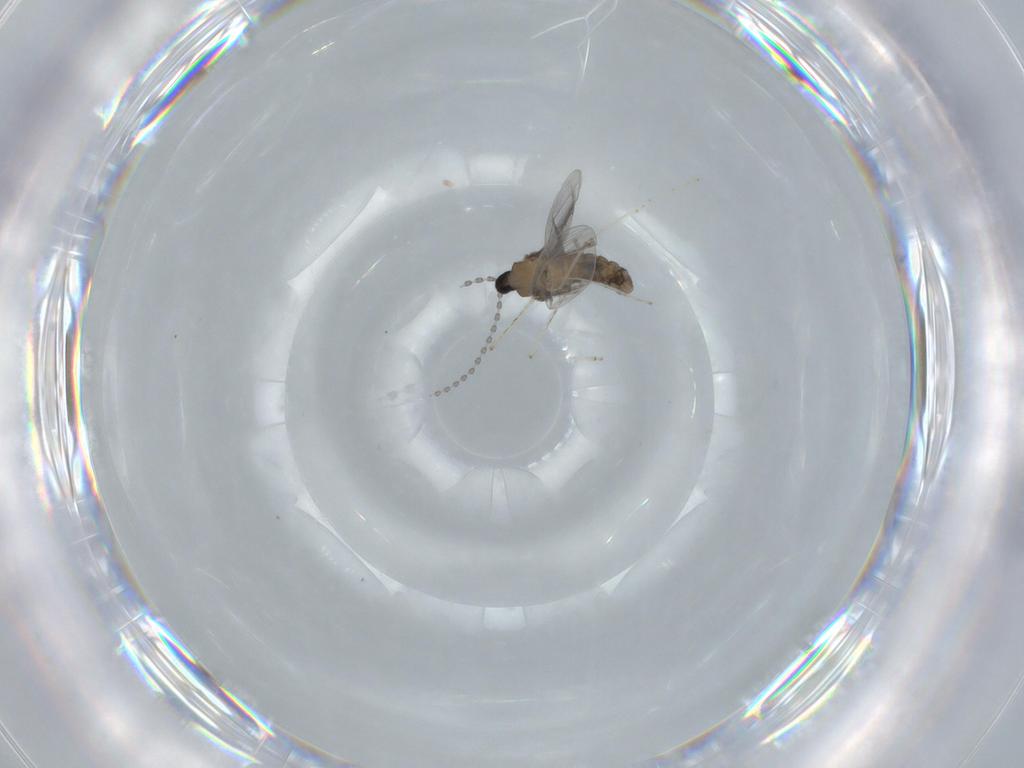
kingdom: Animalia
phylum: Arthropoda
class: Insecta
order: Diptera
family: Cecidomyiidae
